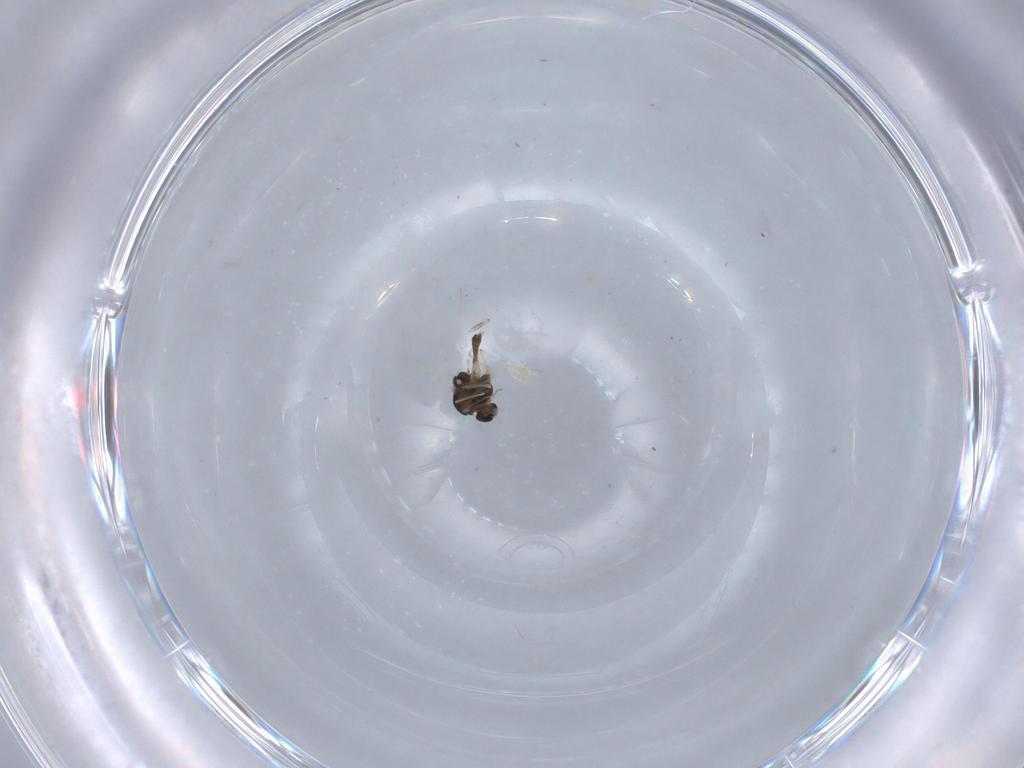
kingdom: Animalia
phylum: Arthropoda
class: Insecta
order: Diptera
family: Chironomidae
